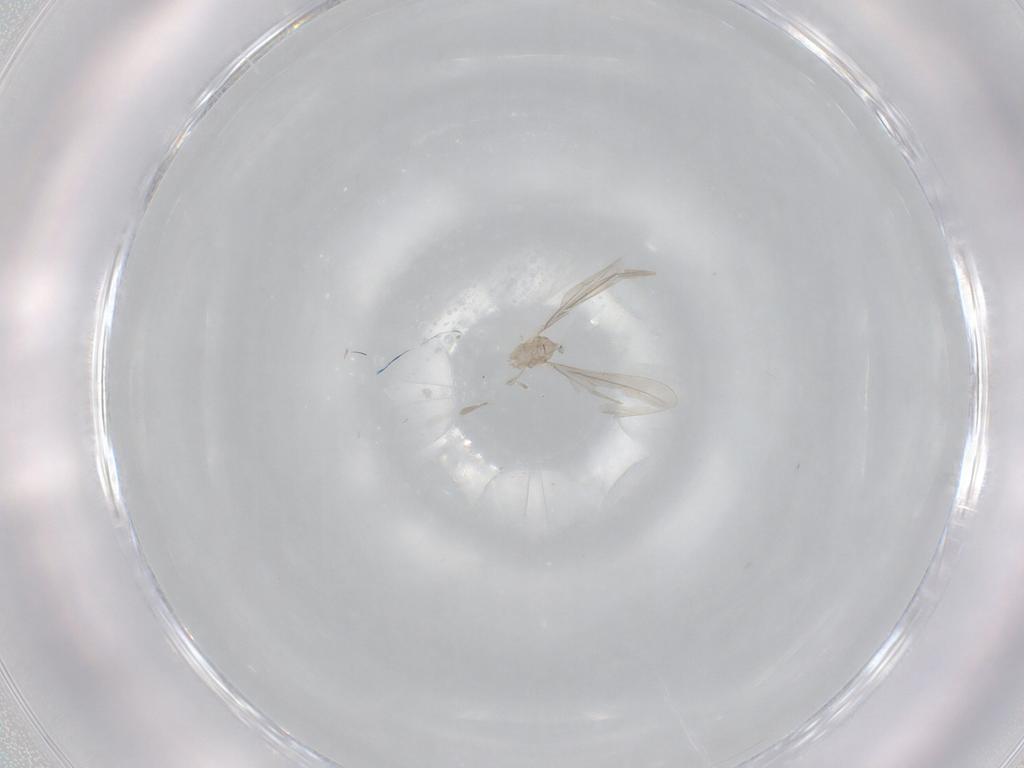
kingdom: Animalia
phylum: Arthropoda
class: Insecta
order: Diptera
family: Ceratopogonidae
